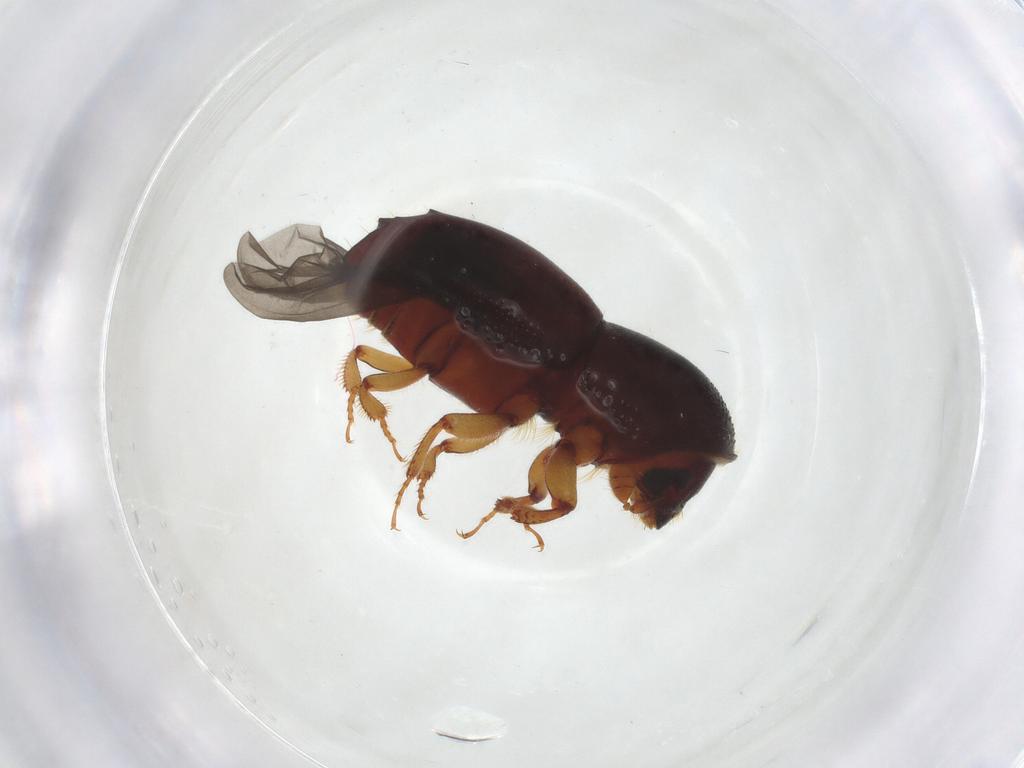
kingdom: Animalia
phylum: Arthropoda
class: Insecta
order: Coleoptera
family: Curculionidae
